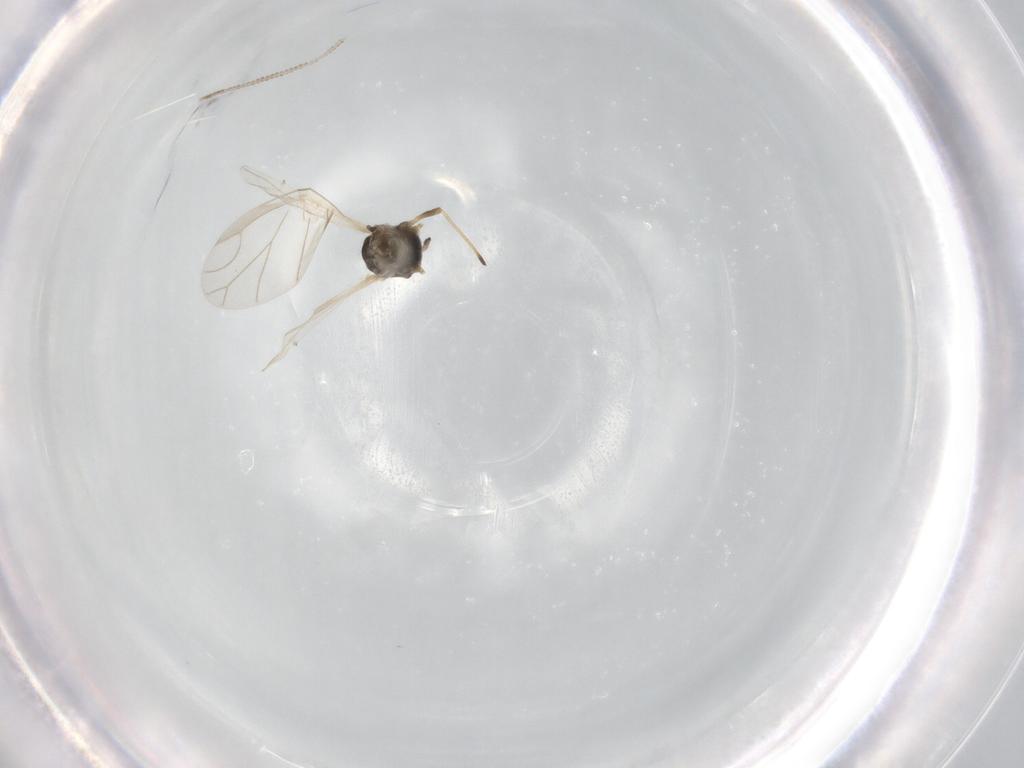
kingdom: Animalia
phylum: Arthropoda
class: Insecta
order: Hemiptera
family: Aphididae
